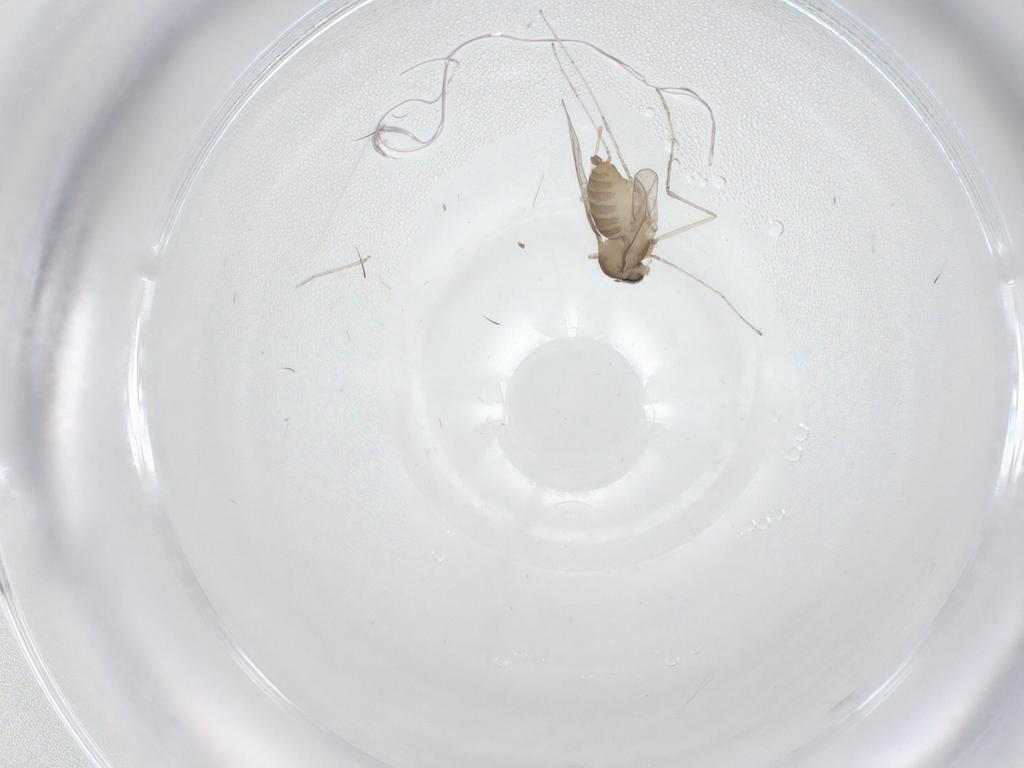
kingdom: Animalia
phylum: Arthropoda
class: Insecta
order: Diptera
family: Cecidomyiidae
